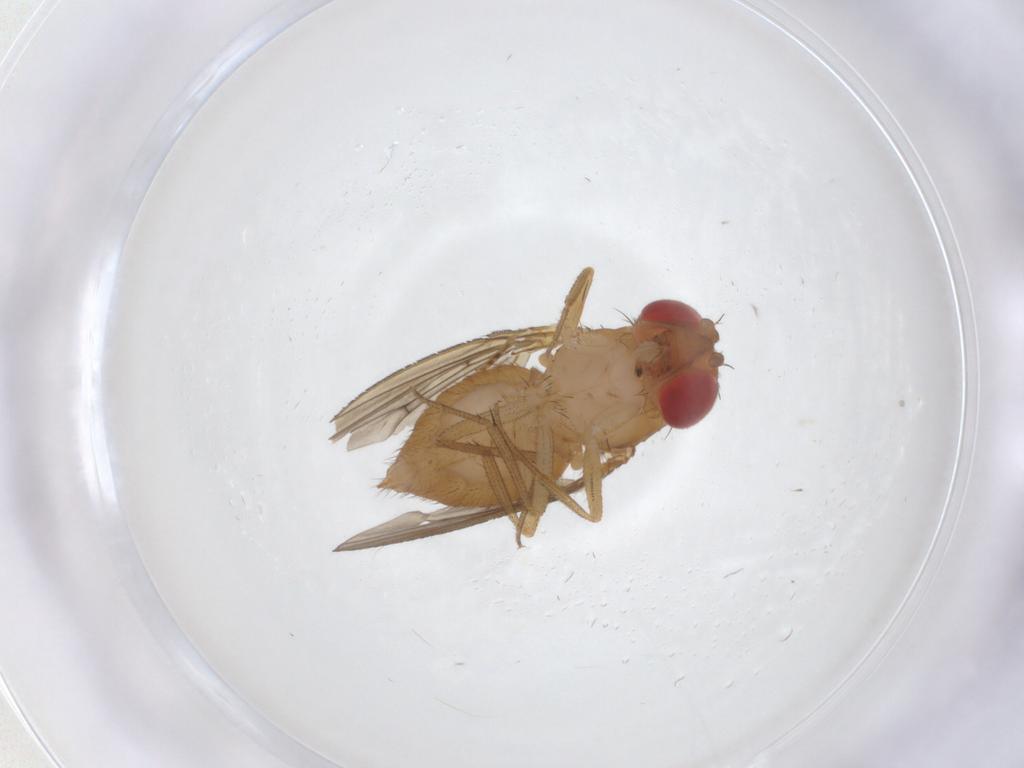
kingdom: Animalia
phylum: Arthropoda
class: Insecta
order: Diptera
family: Drosophilidae
